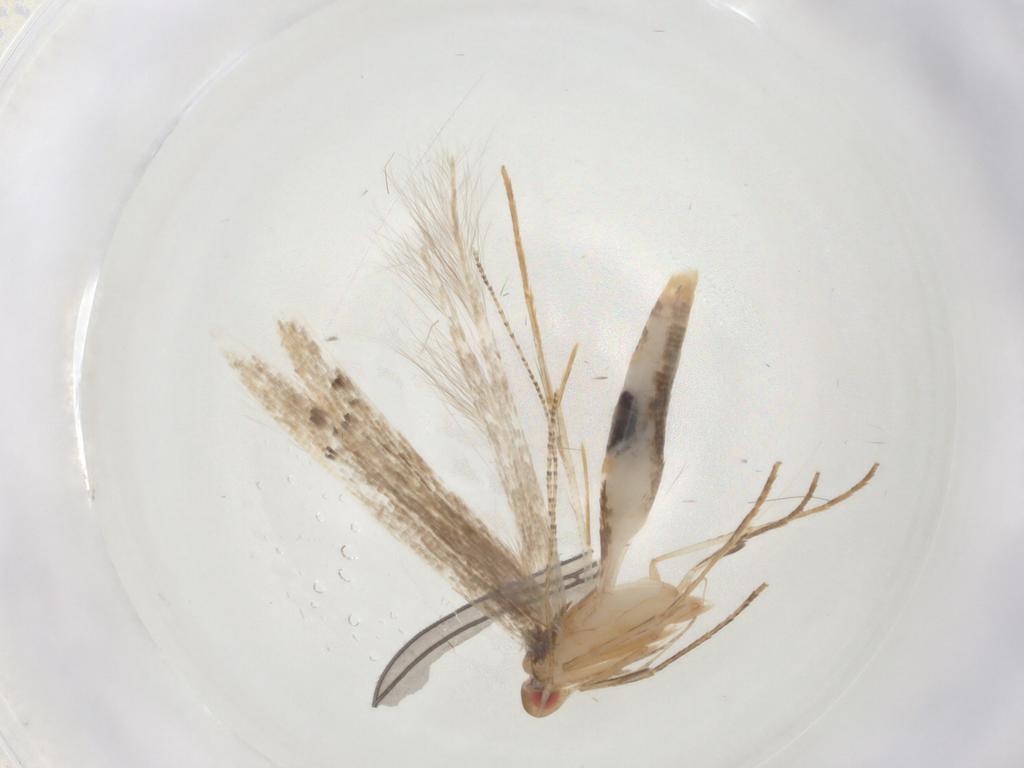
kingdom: Animalia
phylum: Arthropoda
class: Insecta
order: Lepidoptera
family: Cosmopterigidae
